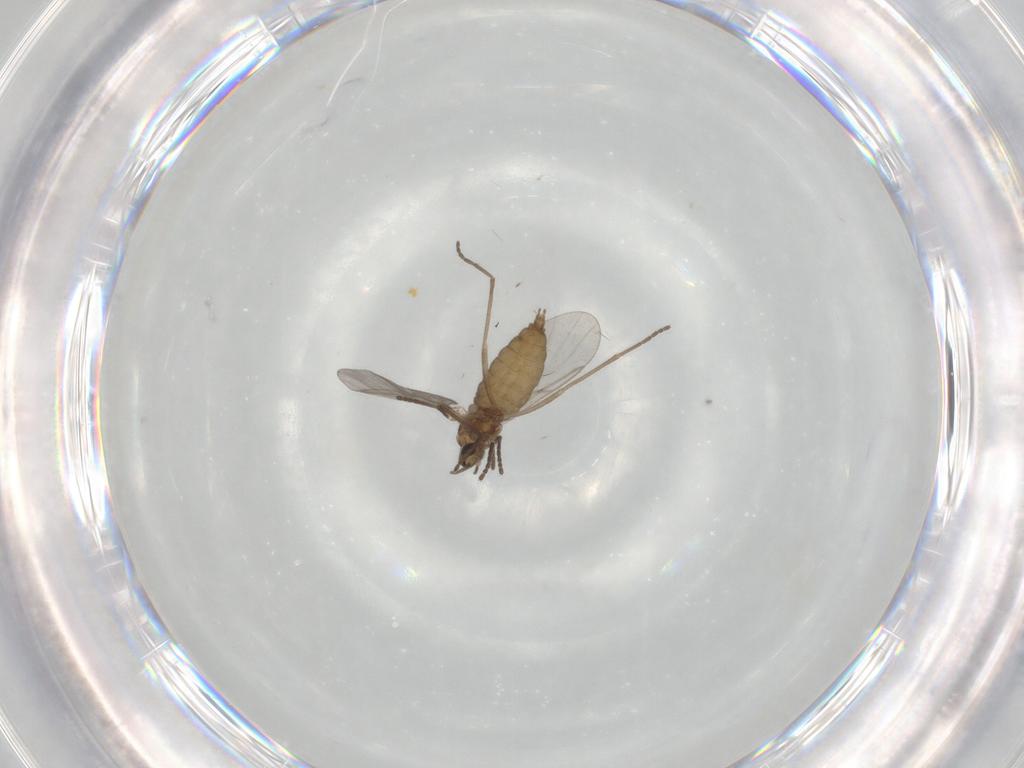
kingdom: Animalia
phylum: Arthropoda
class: Insecta
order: Diptera
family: Cecidomyiidae
